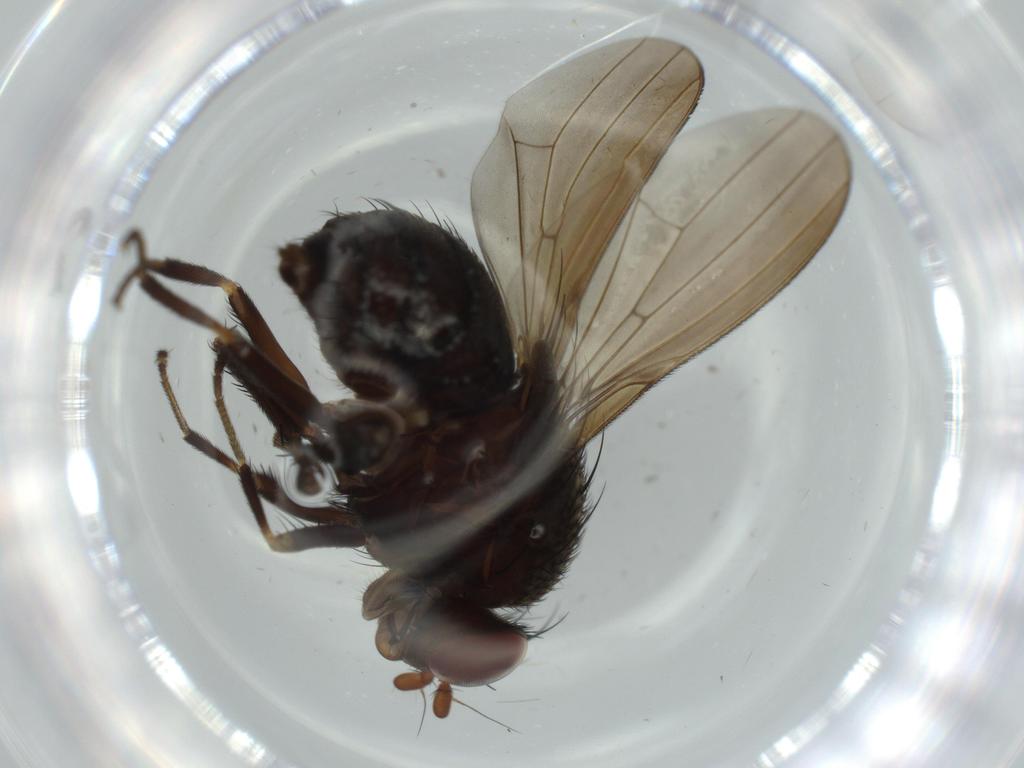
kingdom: Animalia
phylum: Arthropoda
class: Insecta
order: Diptera
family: Tabanidae
